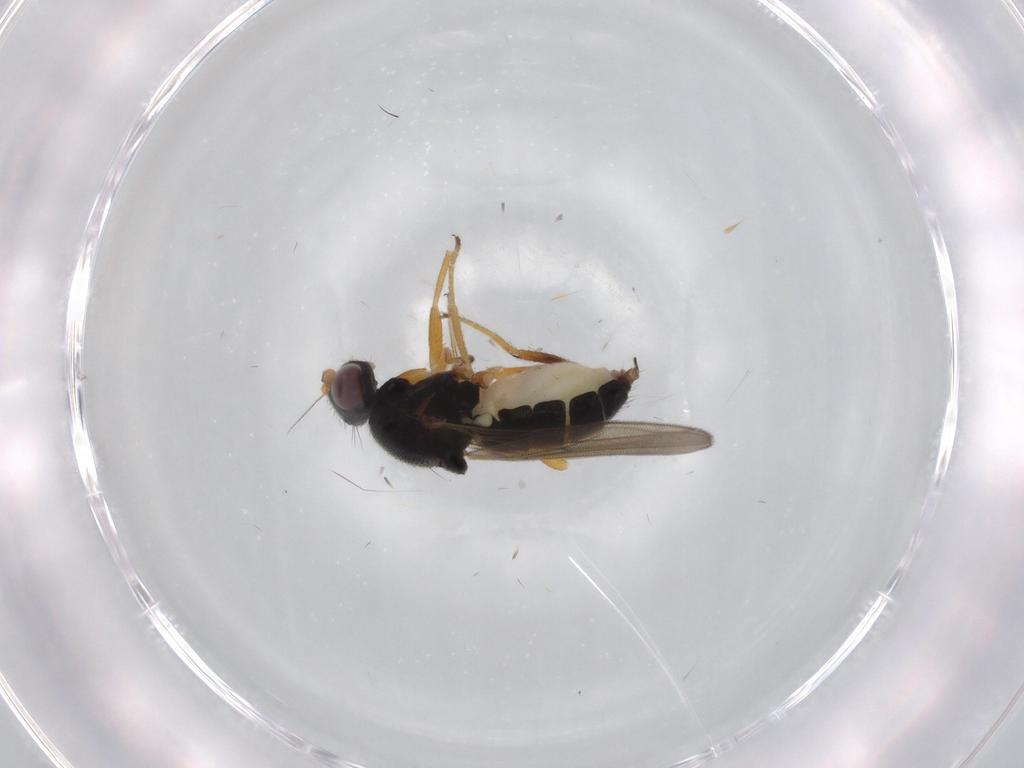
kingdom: Animalia
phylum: Arthropoda
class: Insecta
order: Diptera
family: Chloropidae
